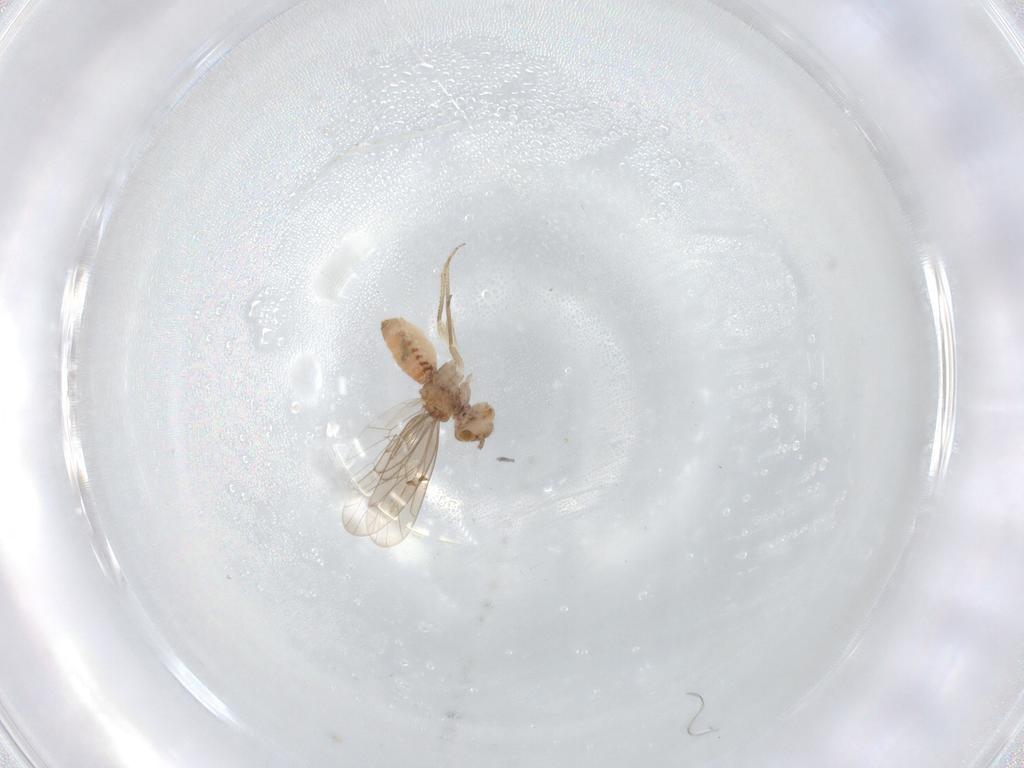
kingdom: Animalia
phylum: Arthropoda
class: Insecta
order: Psocodea
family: Ectopsocidae
